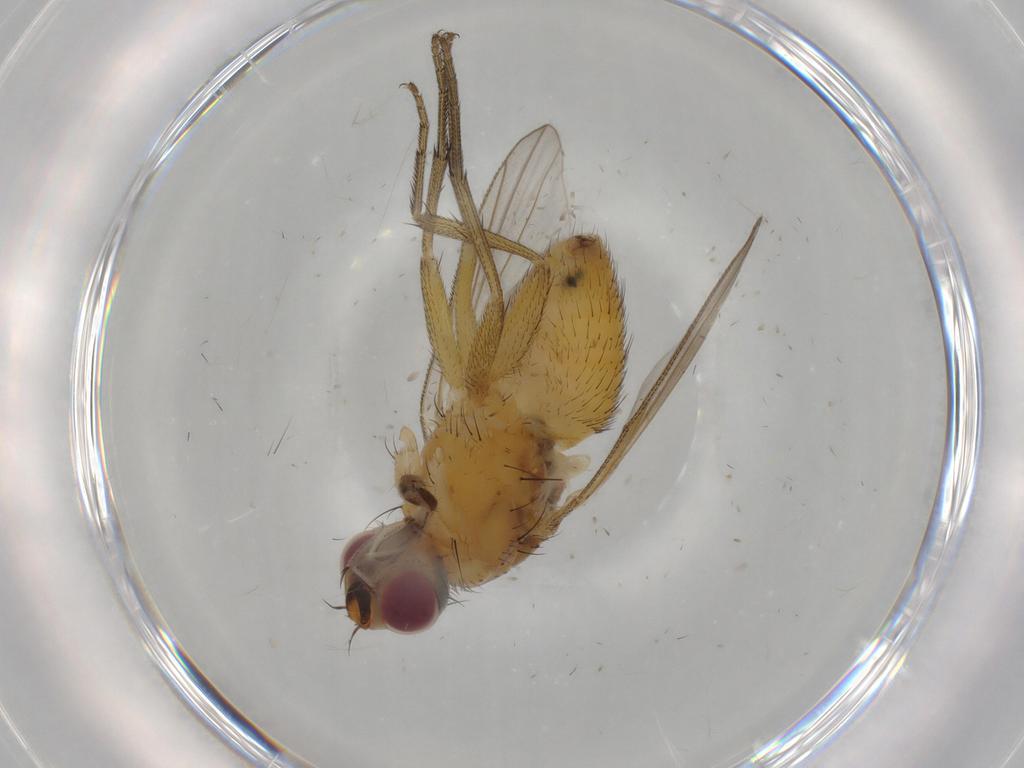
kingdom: Animalia
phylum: Arthropoda
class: Insecta
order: Diptera
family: Muscidae
